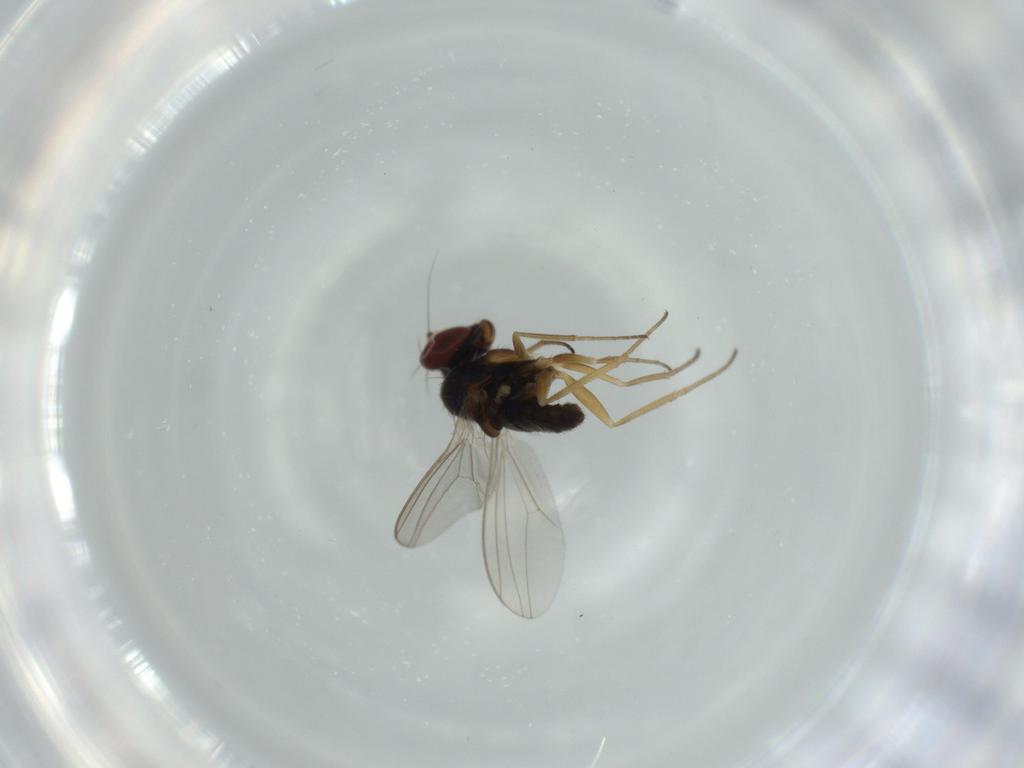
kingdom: Animalia
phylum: Arthropoda
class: Insecta
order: Diptera
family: Dolichopodidae
